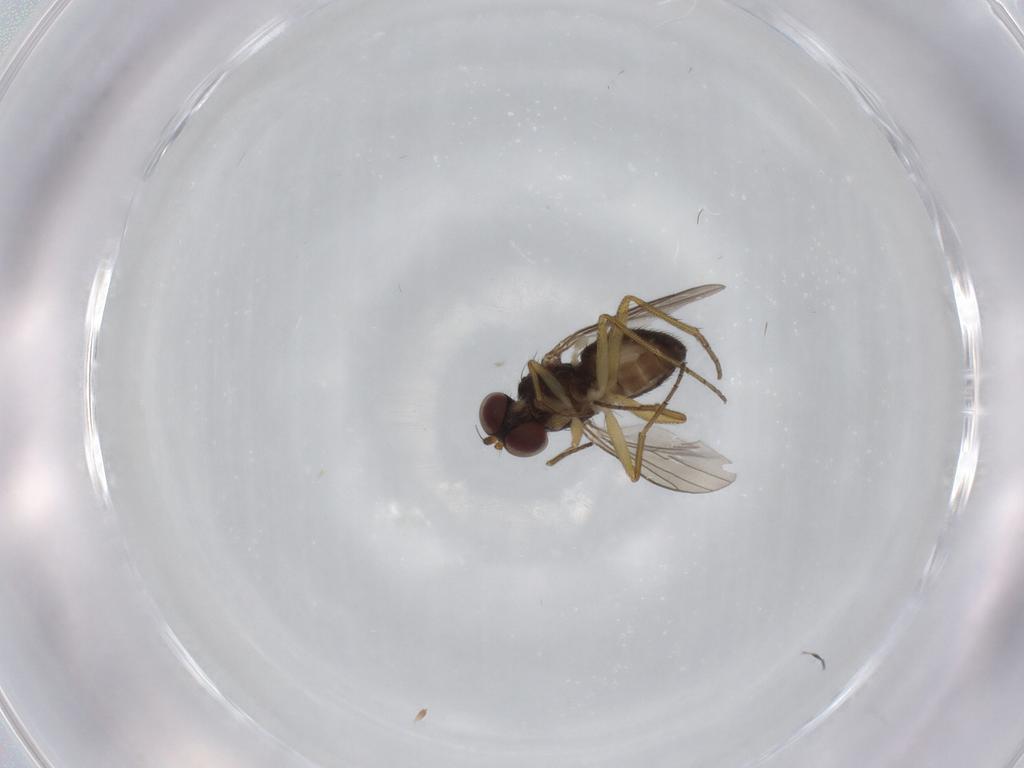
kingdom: Animalia
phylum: Arthropoda
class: Insecta
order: Diptera
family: Dolichopodidae
